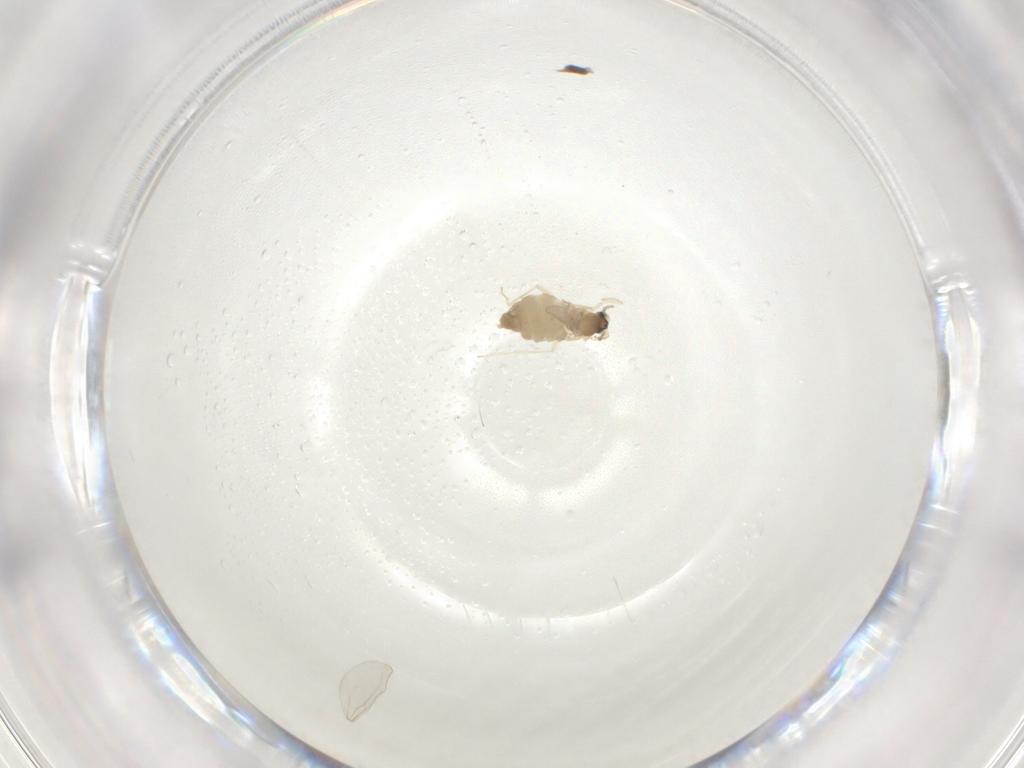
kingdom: Animalia
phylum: Arthropoda
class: Insecta
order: Diptera
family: Cecidomyiidae
